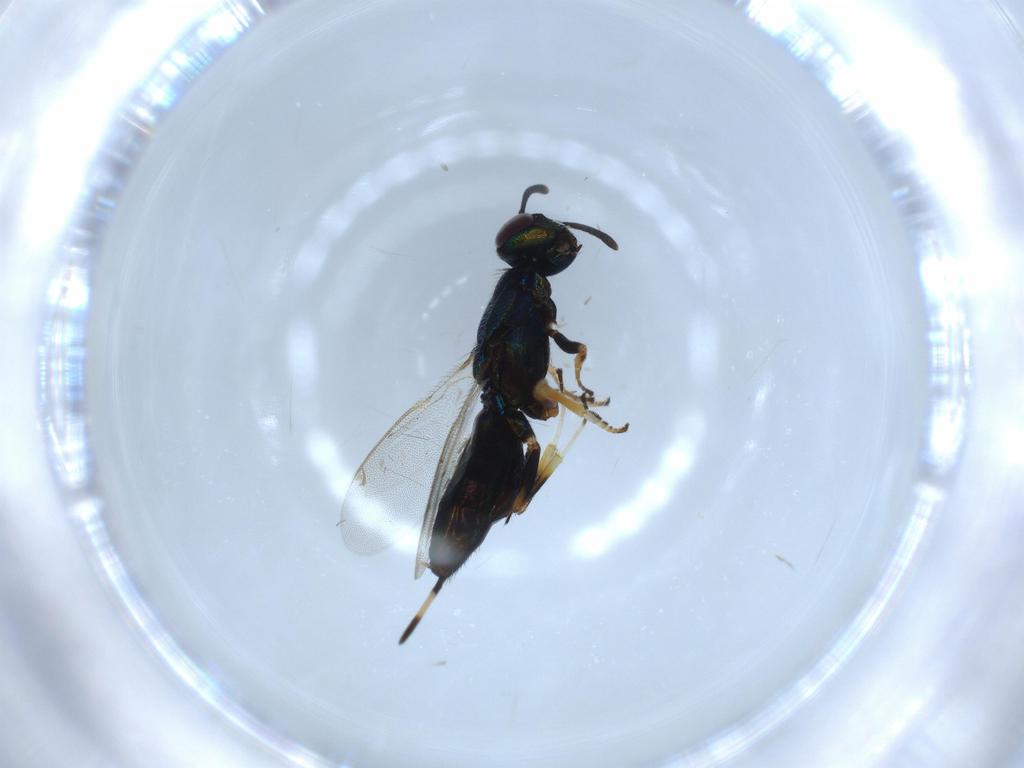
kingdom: Animalia
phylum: Arthropoda
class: Insecta
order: Hymenoptera
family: Eupelmidae
